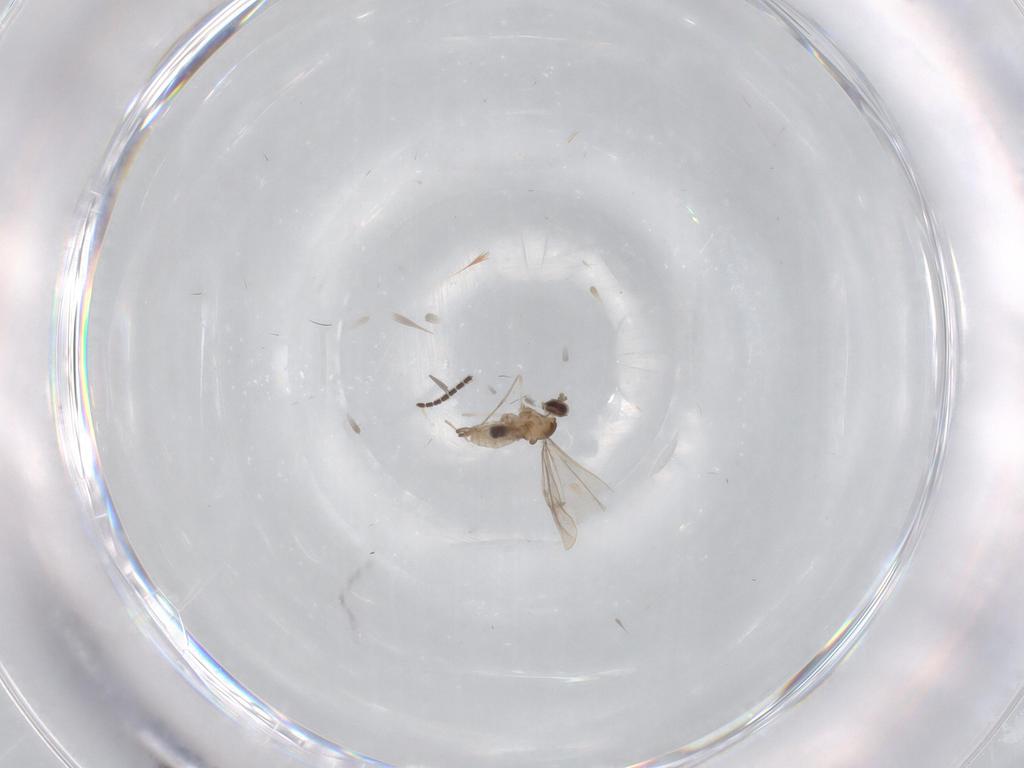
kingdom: Animalia
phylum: Arthropoda
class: Insecta
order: Diptera
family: Cecidomyiidae
